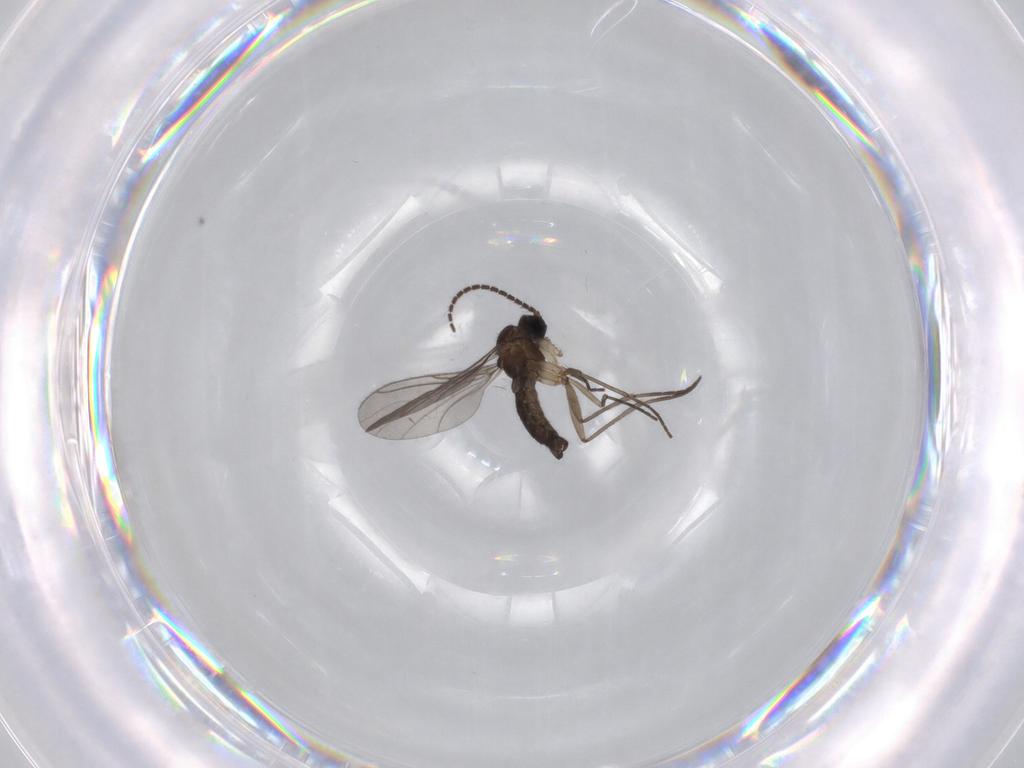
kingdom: Animalia
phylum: Arthropoda
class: Insecta
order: Diptera
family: Sciaridae
